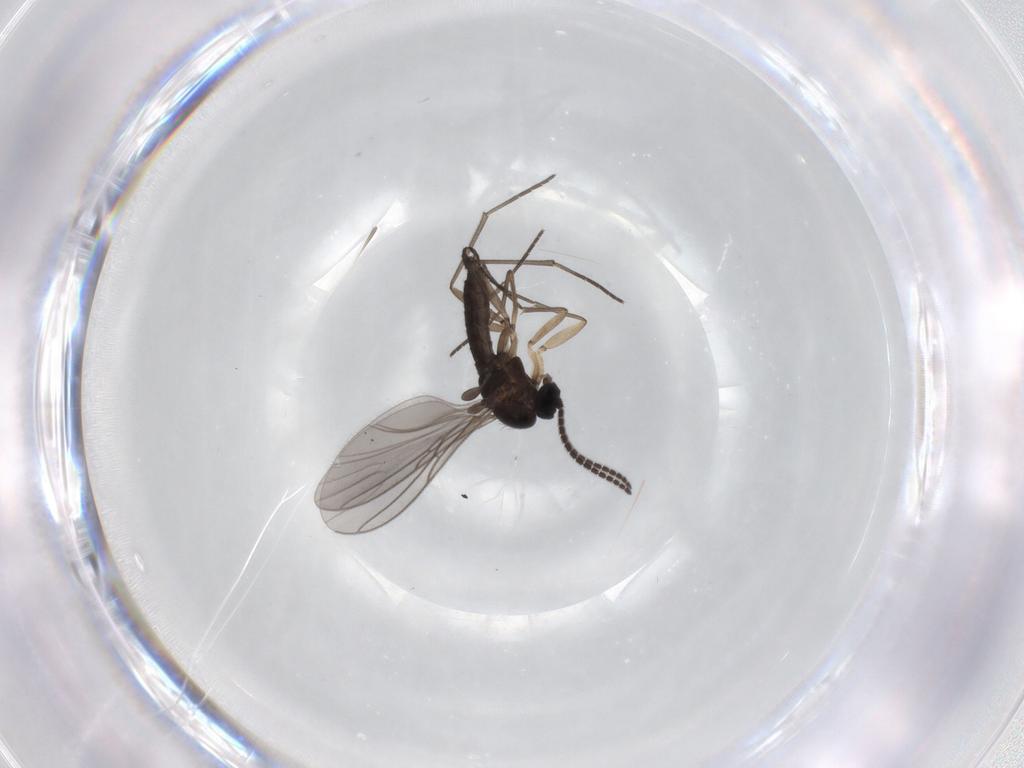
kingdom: Animalia
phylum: Arthropoda
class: Insecta
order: Diptera
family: Sciaridae
